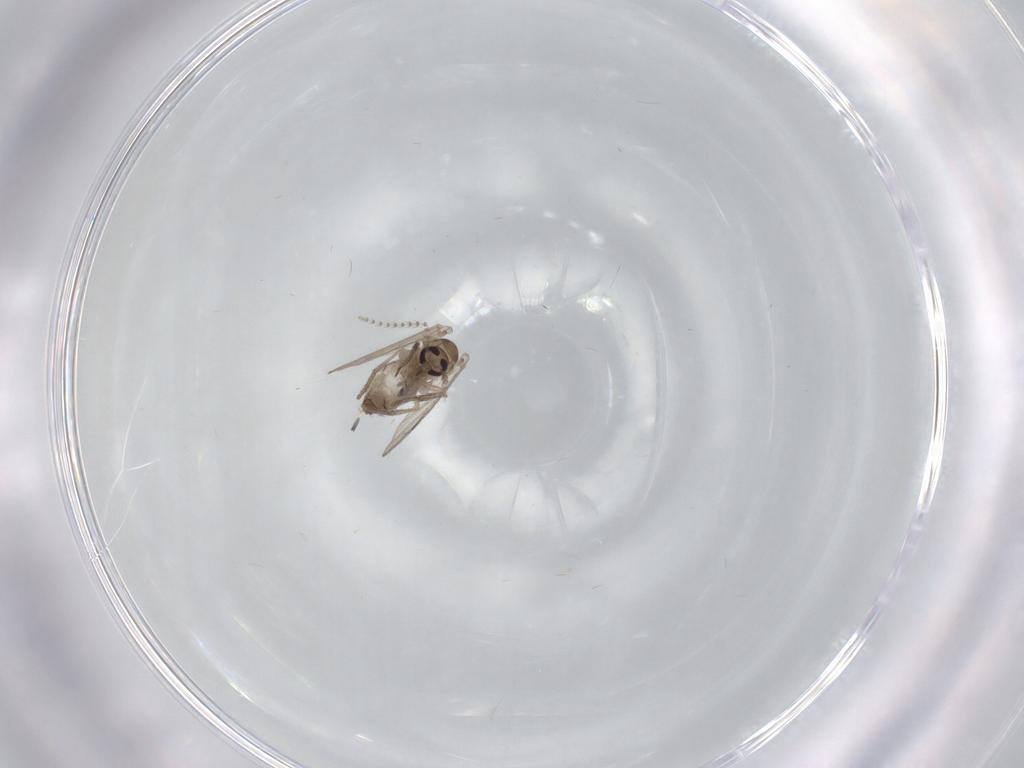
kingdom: Animalia
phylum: Arthropoda
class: Insecta
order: Diptera
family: Psychodidae
